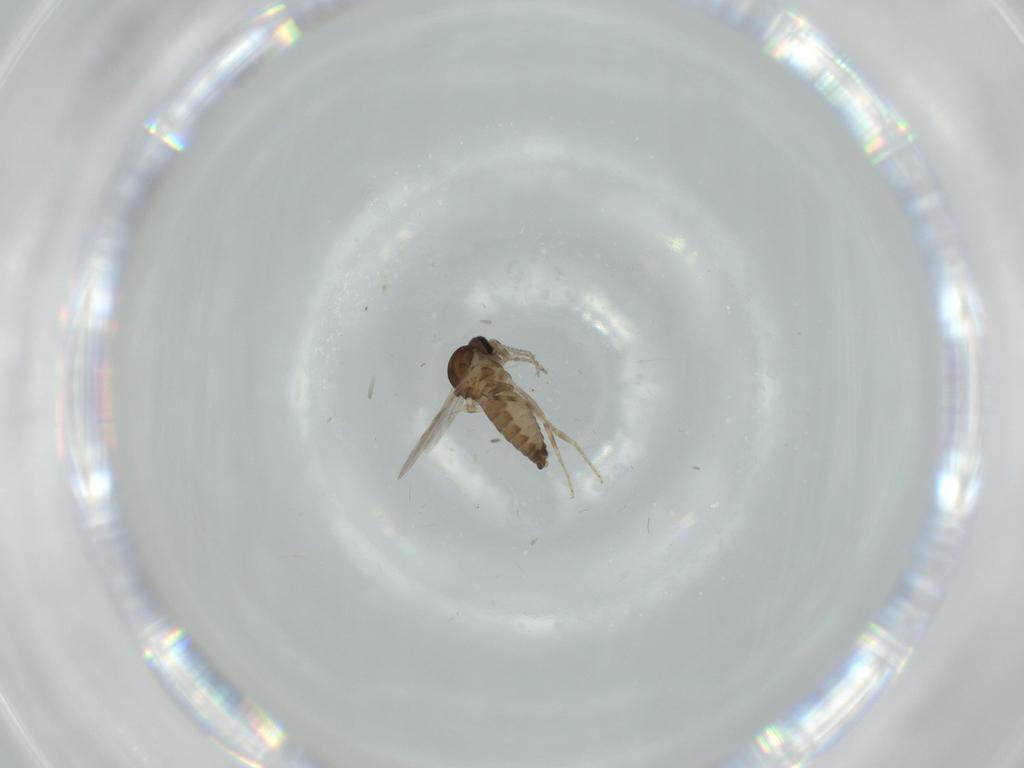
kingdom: Animalia
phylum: Arthropoda
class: Insecta
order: Diptera
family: Ceratopogonidae
